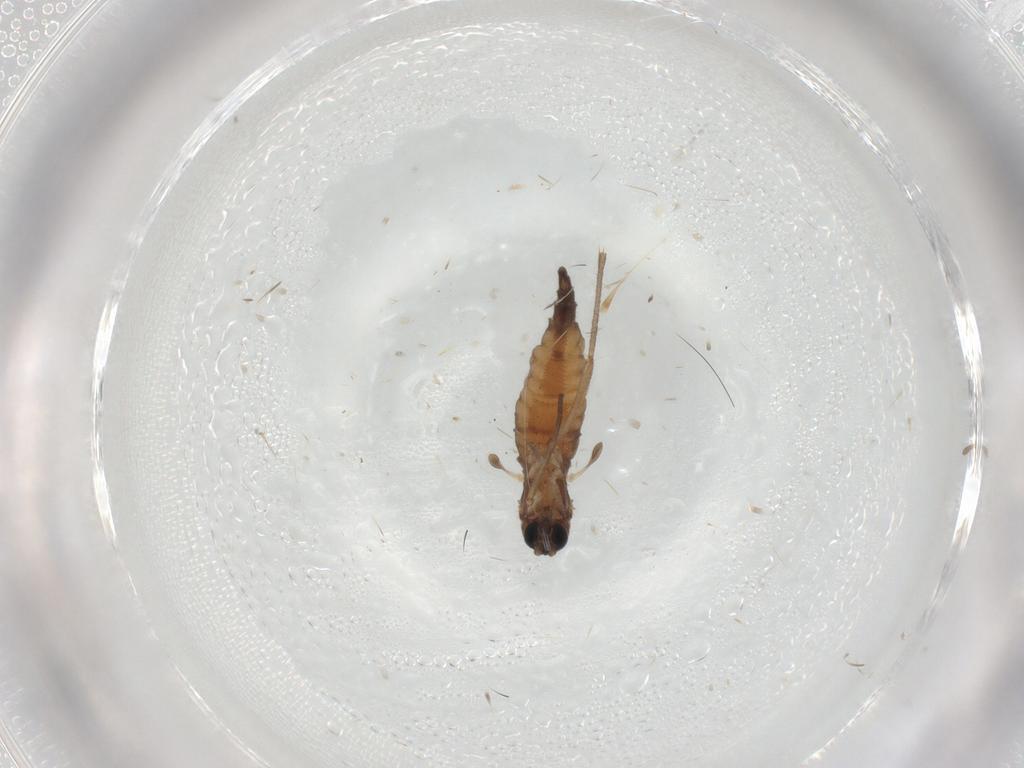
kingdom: Animalia
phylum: Arthropoda
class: Insecta
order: Diptera
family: Sciaridae
